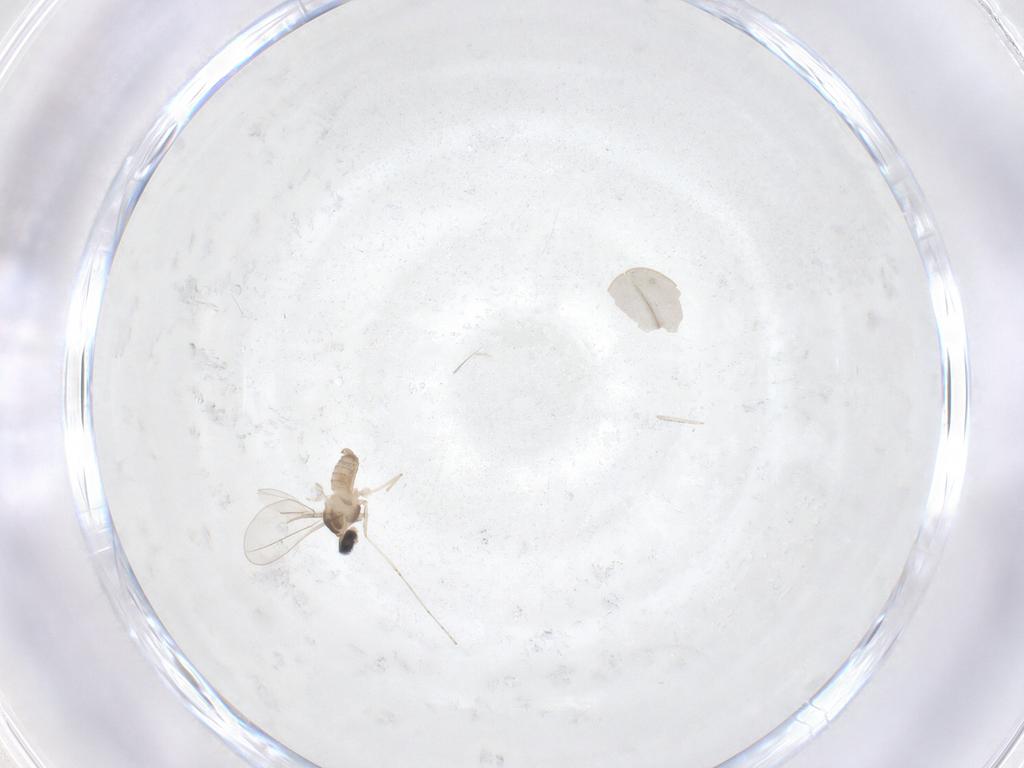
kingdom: Animalia
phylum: Arthropoda
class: Insecta
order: Diptera
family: Cecidomyiidae
